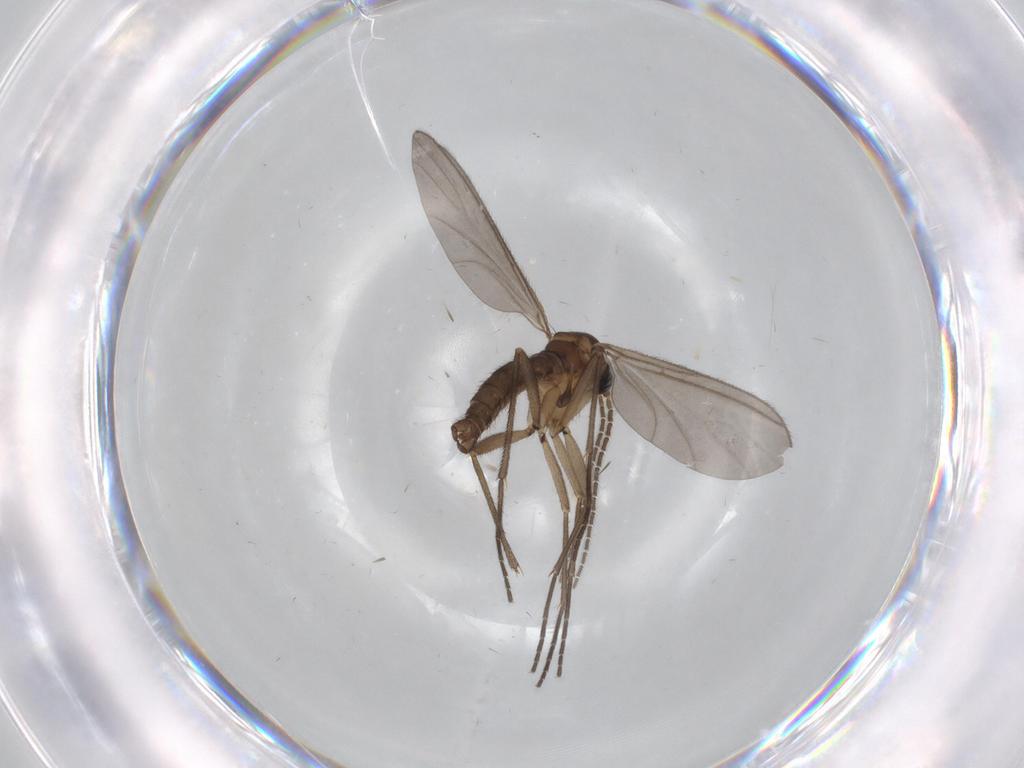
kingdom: Animalia
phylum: Arthropoda
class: Insecta
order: Diptera
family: Limoniidae
